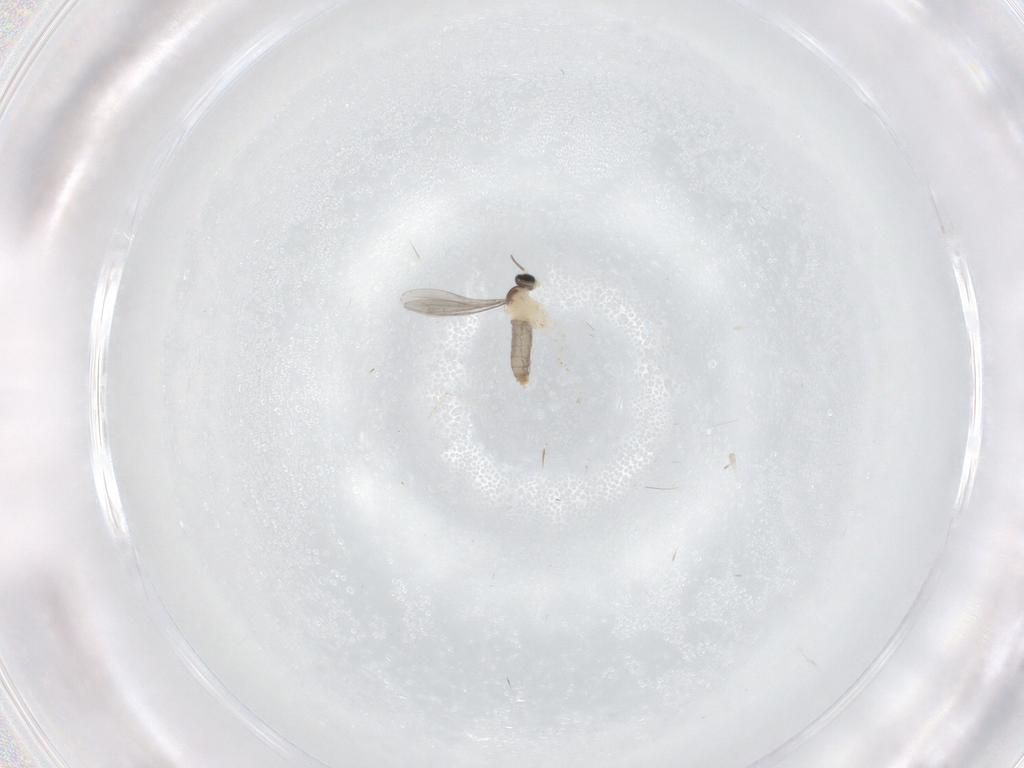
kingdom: Animalia
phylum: Arthropoda
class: Insecta
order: Diptera
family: Cecidomyiidae
